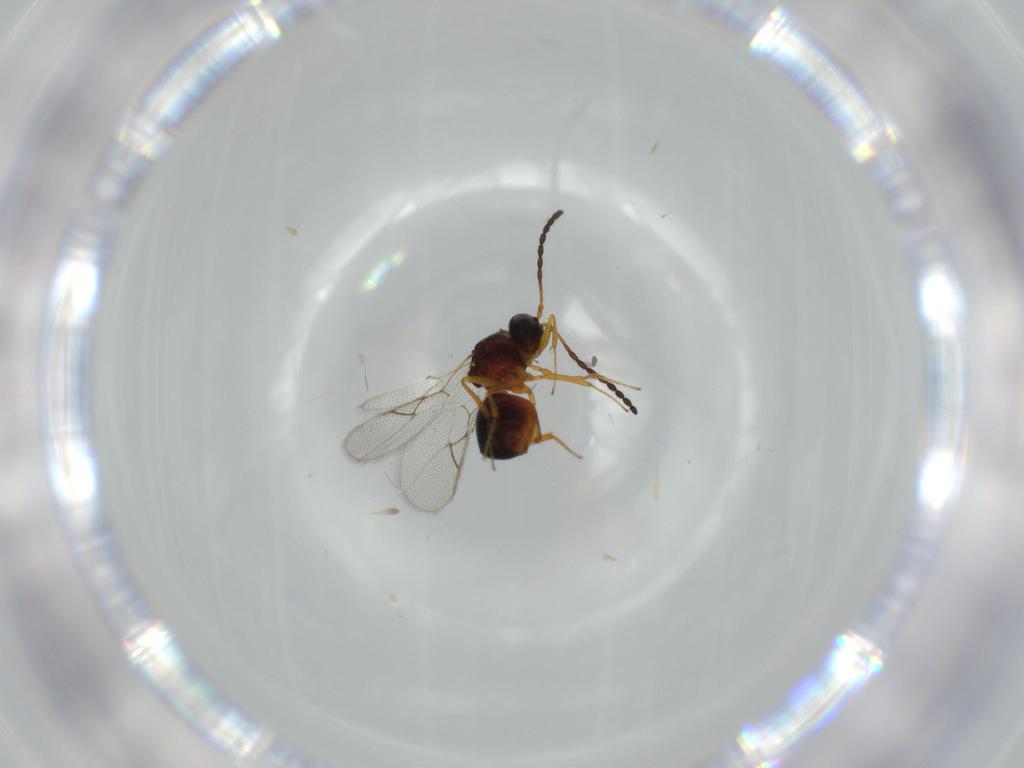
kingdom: Animalia
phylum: Arthropoda
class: Insecta
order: Hymenoptera
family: Figitidae
